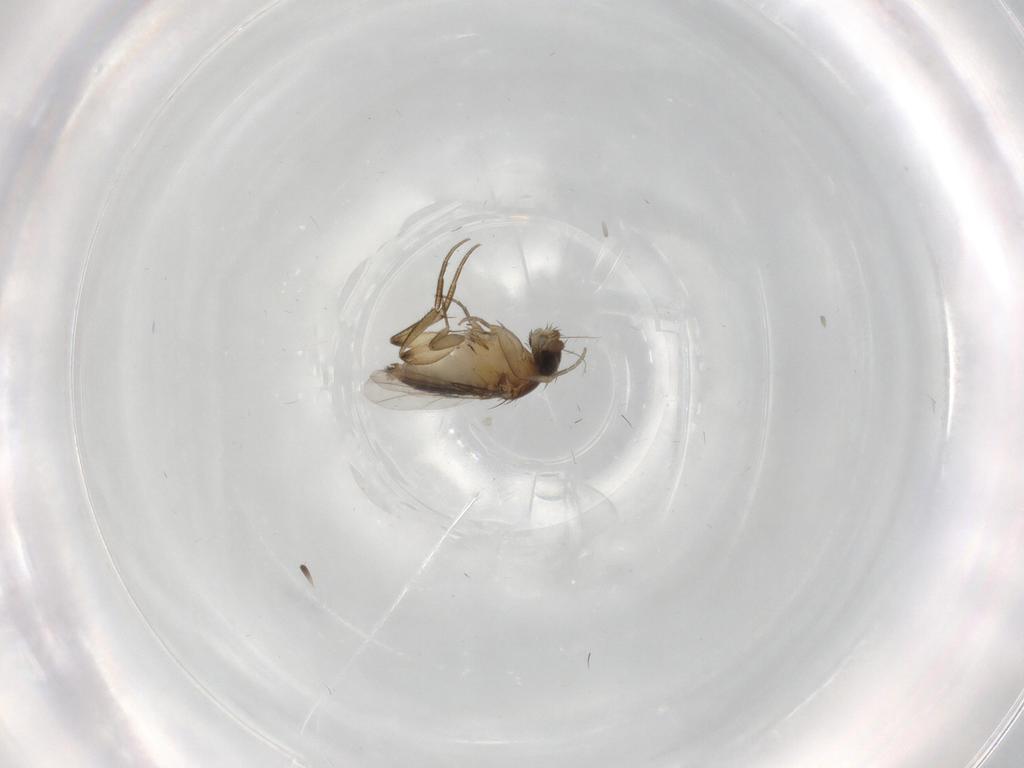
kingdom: Animalia
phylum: Arthropoda
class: Insecta
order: Diptera
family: Phoridae
